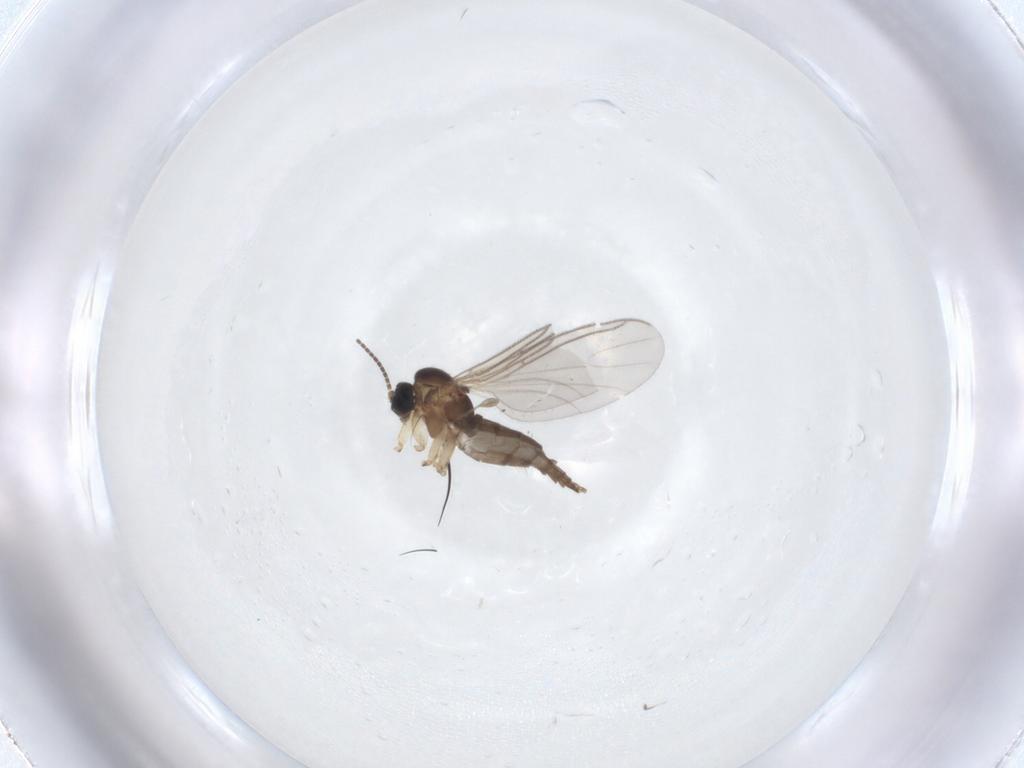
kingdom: Animalia
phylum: Arthropoda
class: Insecta
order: Diptera
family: Sciaridae
